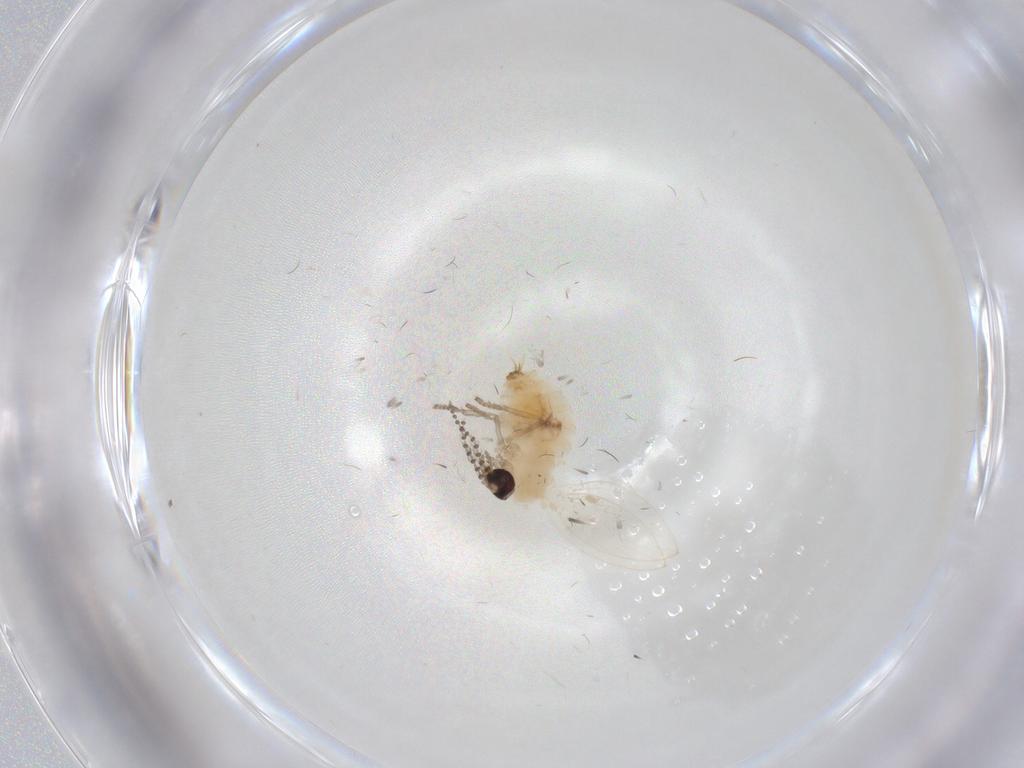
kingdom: Animalia
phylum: Arthropoda
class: Insecta
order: Diptera
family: Psychodidae
